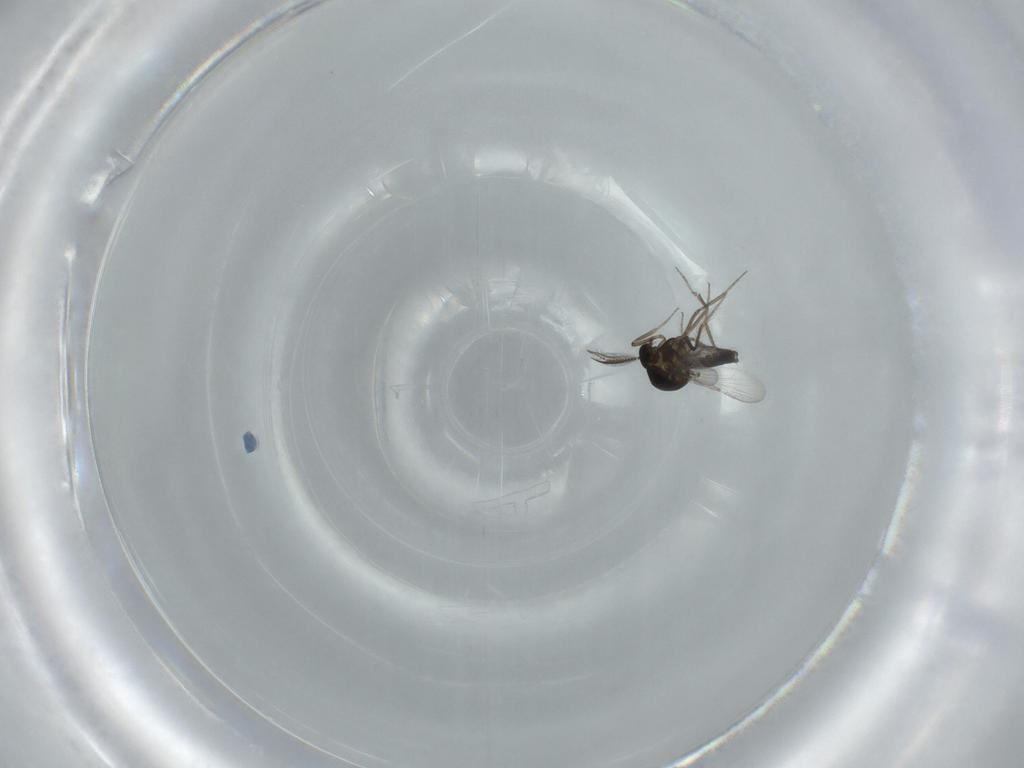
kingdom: Animalia
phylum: Arthropoda
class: Insecta
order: Diptera
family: Hybotidae
